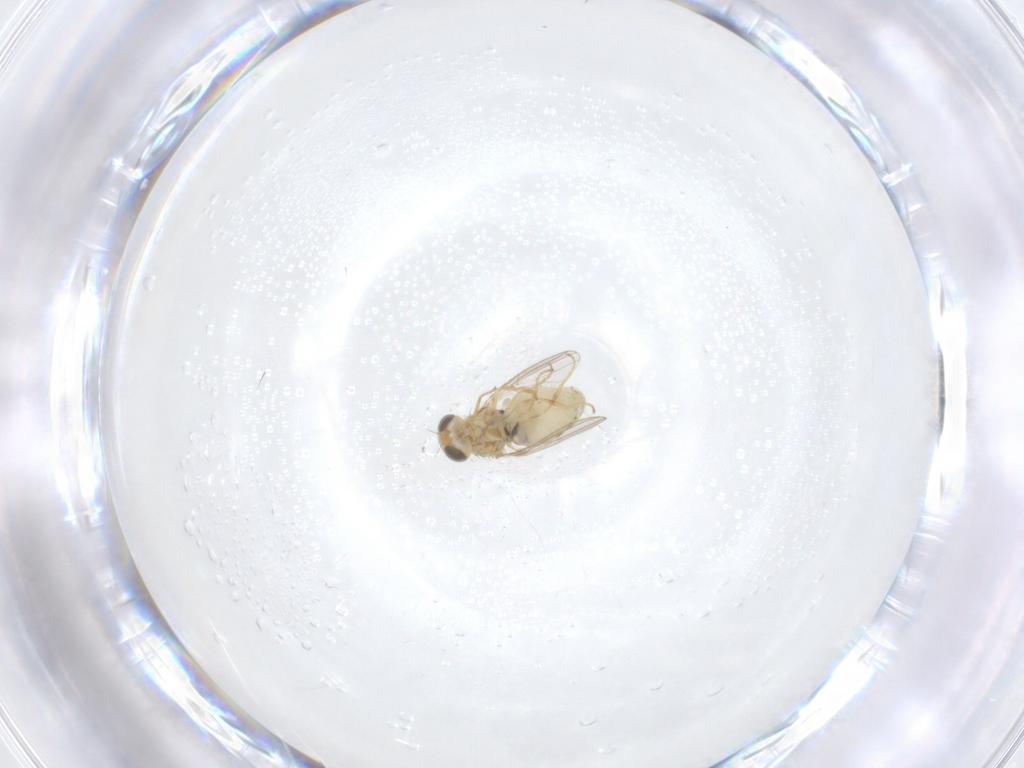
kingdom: Animalia
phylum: Arthropoda
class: Insecta
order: Diptera
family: Chyromyidae
